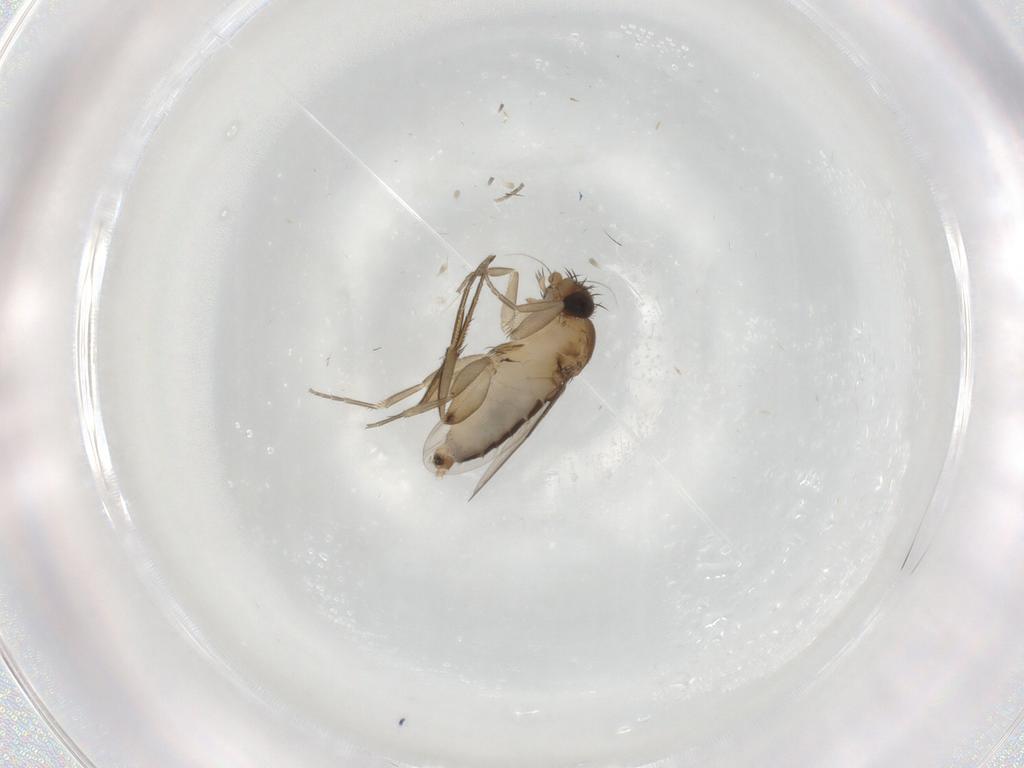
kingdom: Animalia
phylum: Arthropoda
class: Insecta
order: Diptera
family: Phoridae
